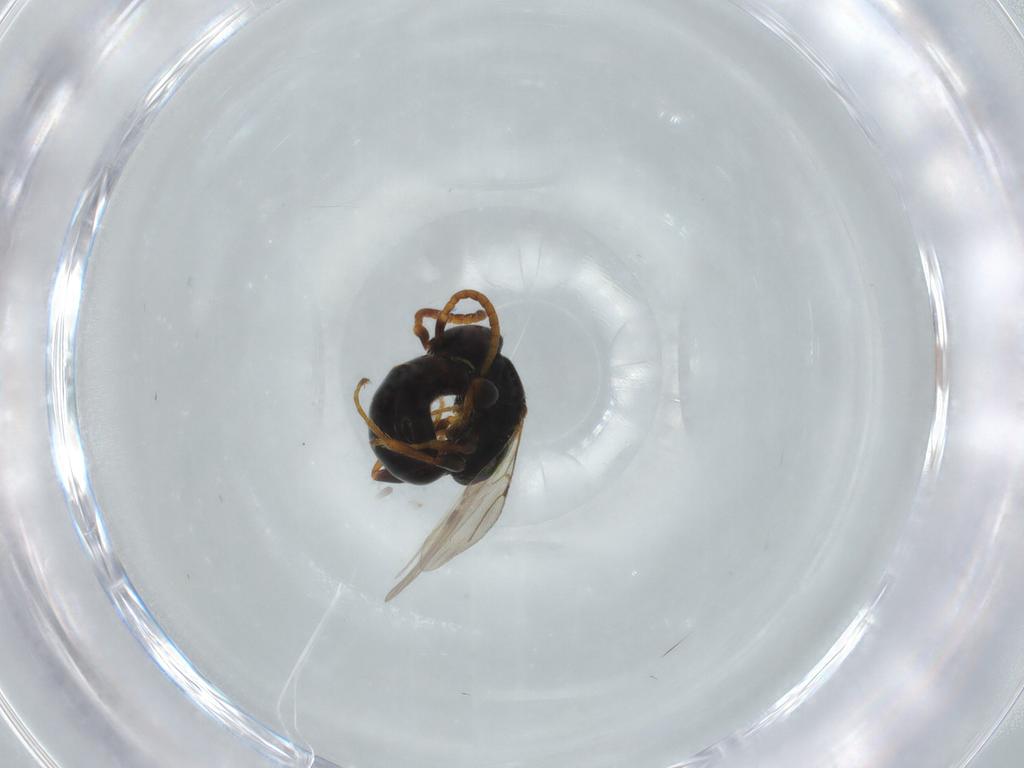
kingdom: Animalia
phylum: Arthropoda
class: Insecta
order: Hymenoptera
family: Bethylidae
